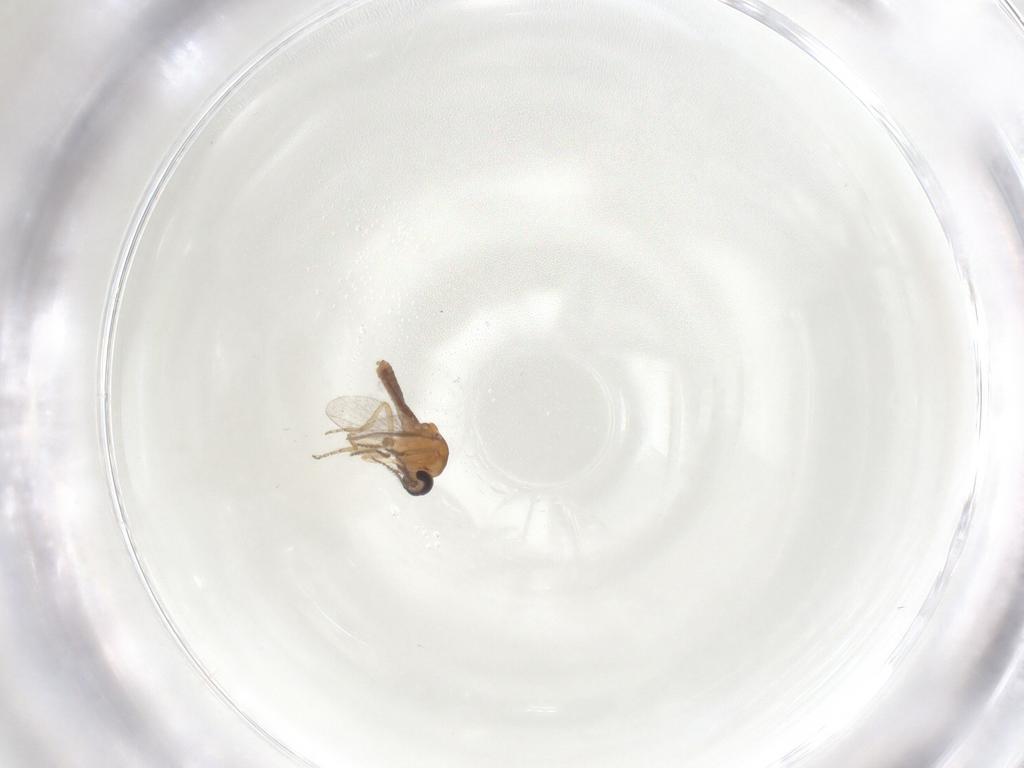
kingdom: Animalia
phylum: Arthropoda
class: Insecta
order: Diptera
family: Ceratopogonidae
